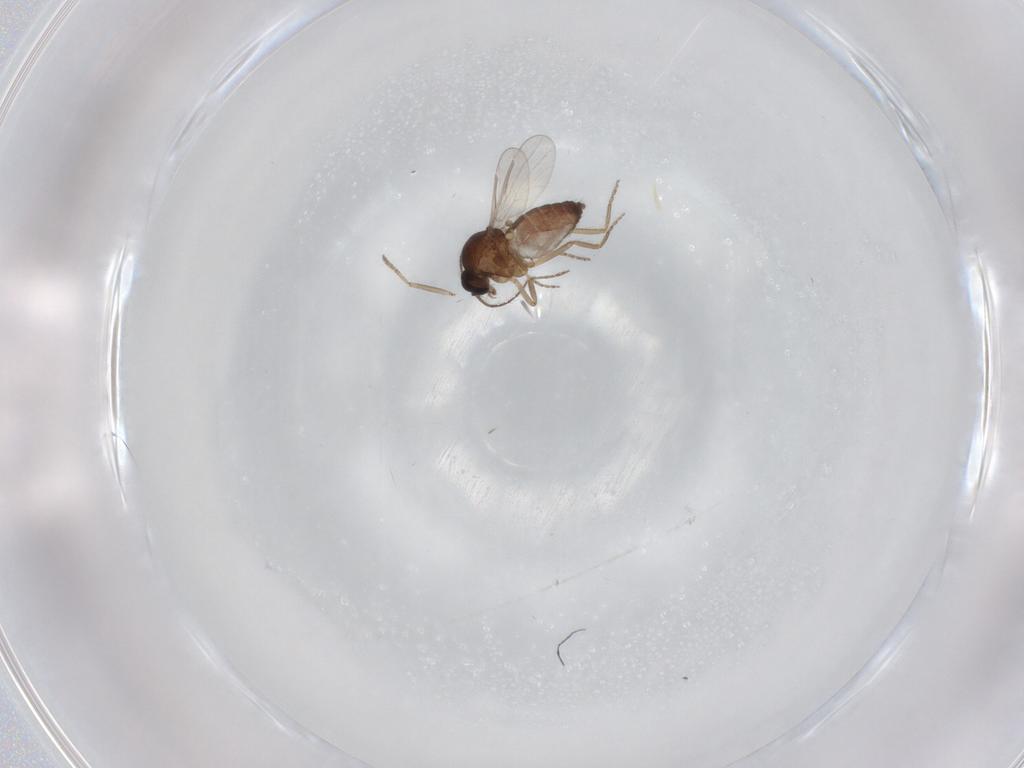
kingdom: Animalia
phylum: Arthropoda
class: Insecta
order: Diptera
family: Ceratopogonidae
